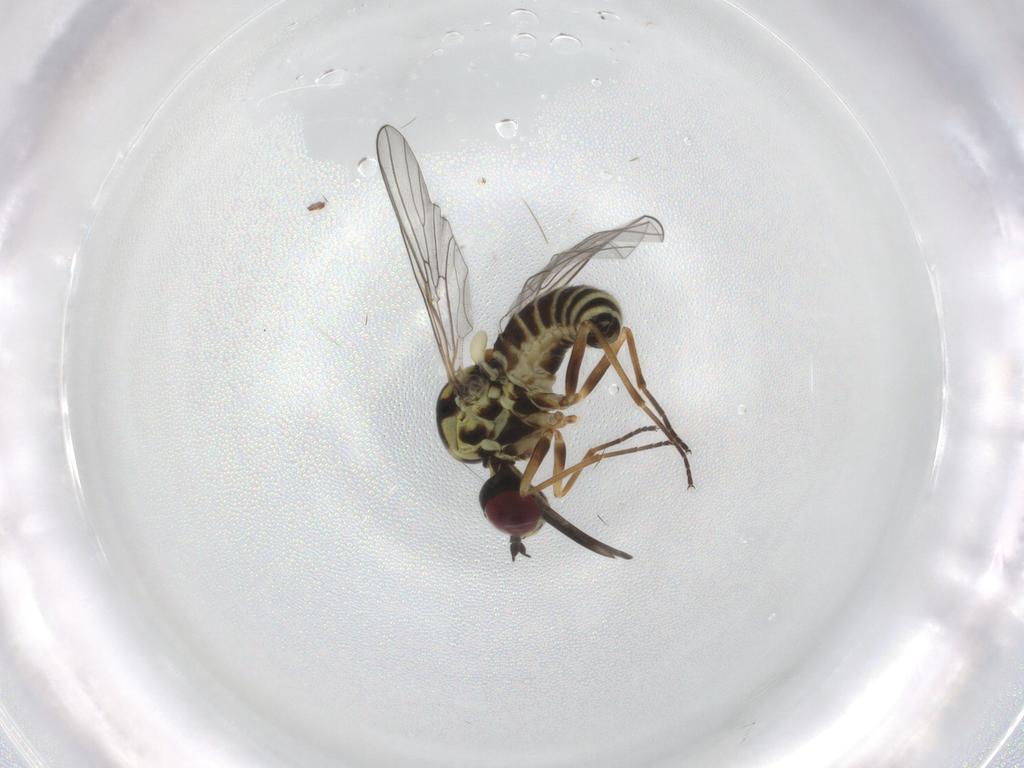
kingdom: Animalia
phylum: Arthropoda
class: Insecta
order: Diptera
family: Bombyliidae
